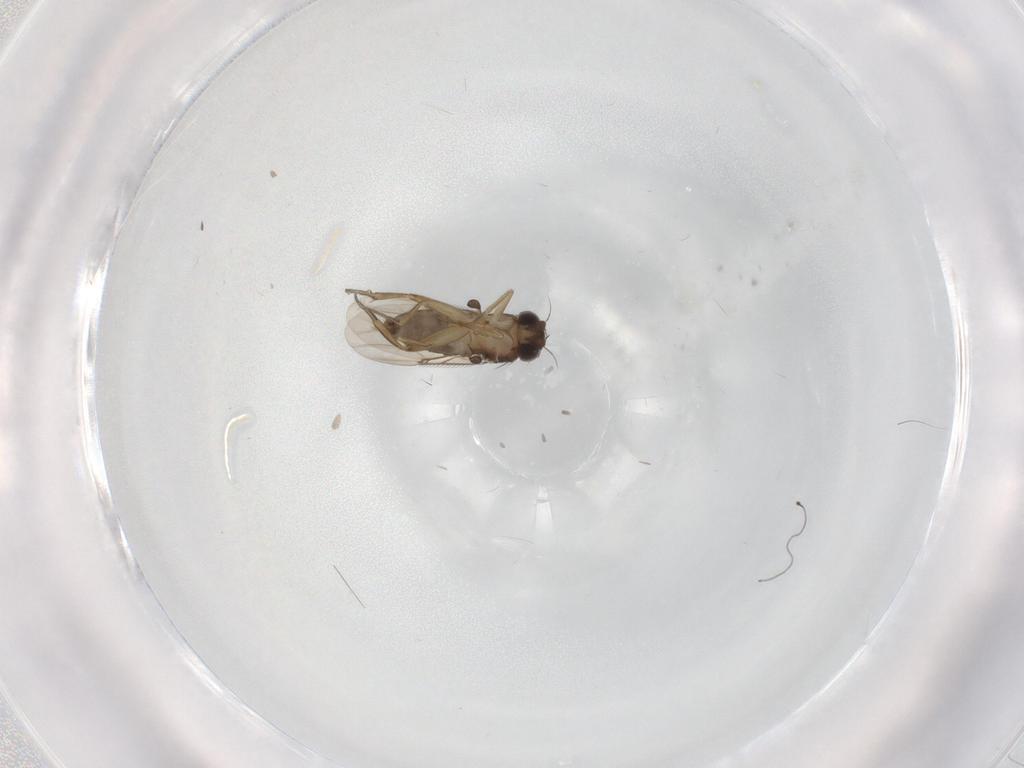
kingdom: Animalia
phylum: Arthropoda
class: Insecta
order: Diptera
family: Phoridae
